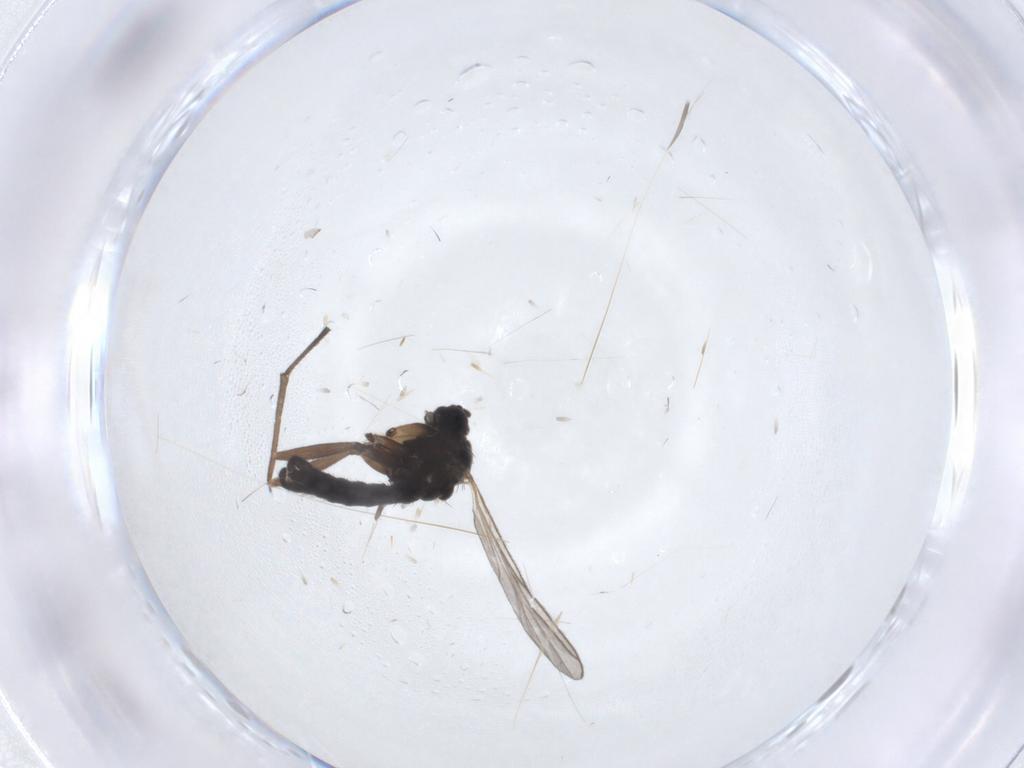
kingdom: Animalia
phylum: Arthropoda
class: Insecta
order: Diptera
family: Sciaridae
